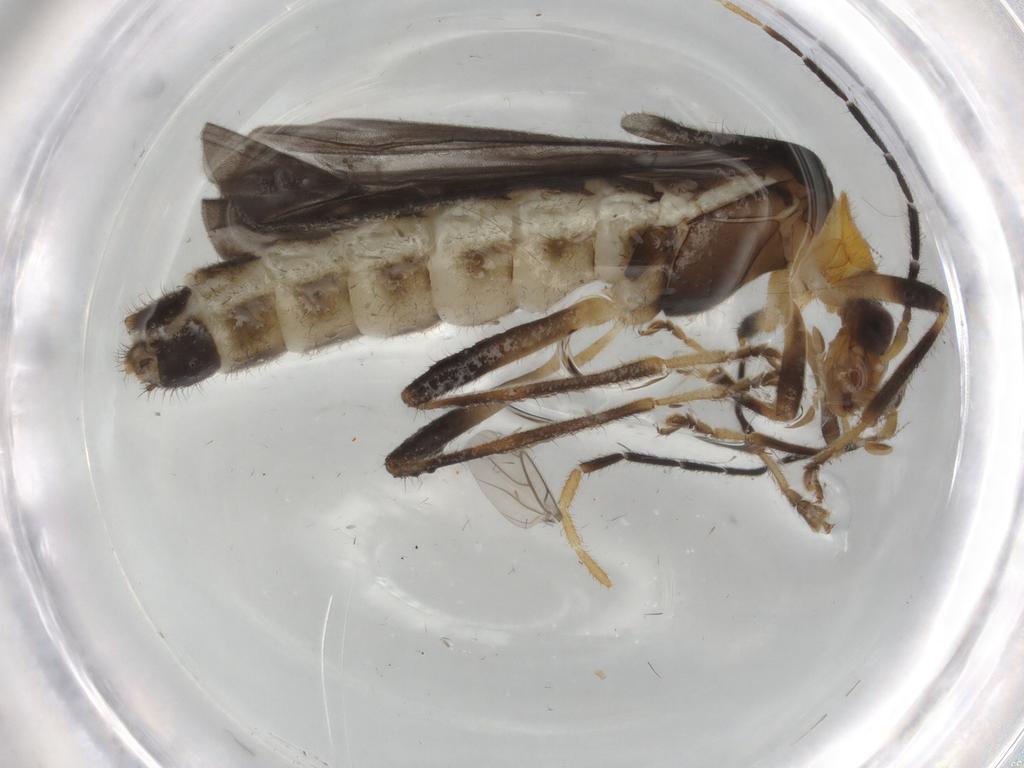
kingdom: Animalia
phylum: Arthropoda
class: Insecta
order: Coleoptera
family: Cantharidae
